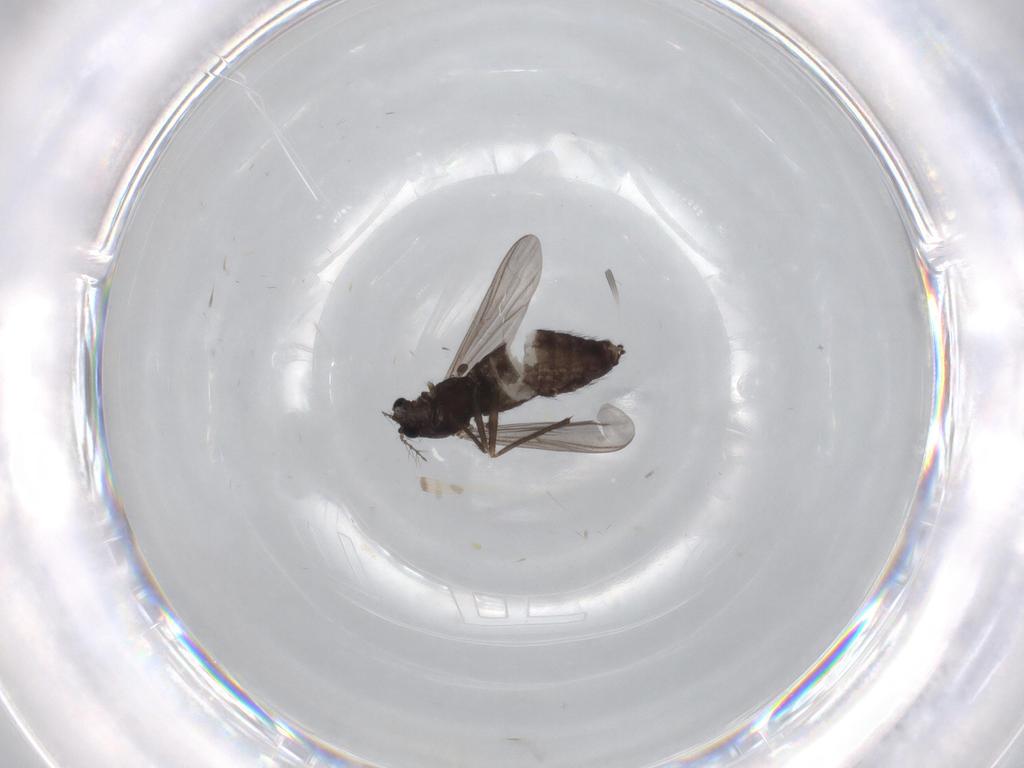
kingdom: Animalia
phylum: Arthropoda
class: Insecta
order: Diptera
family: Chironomidae
